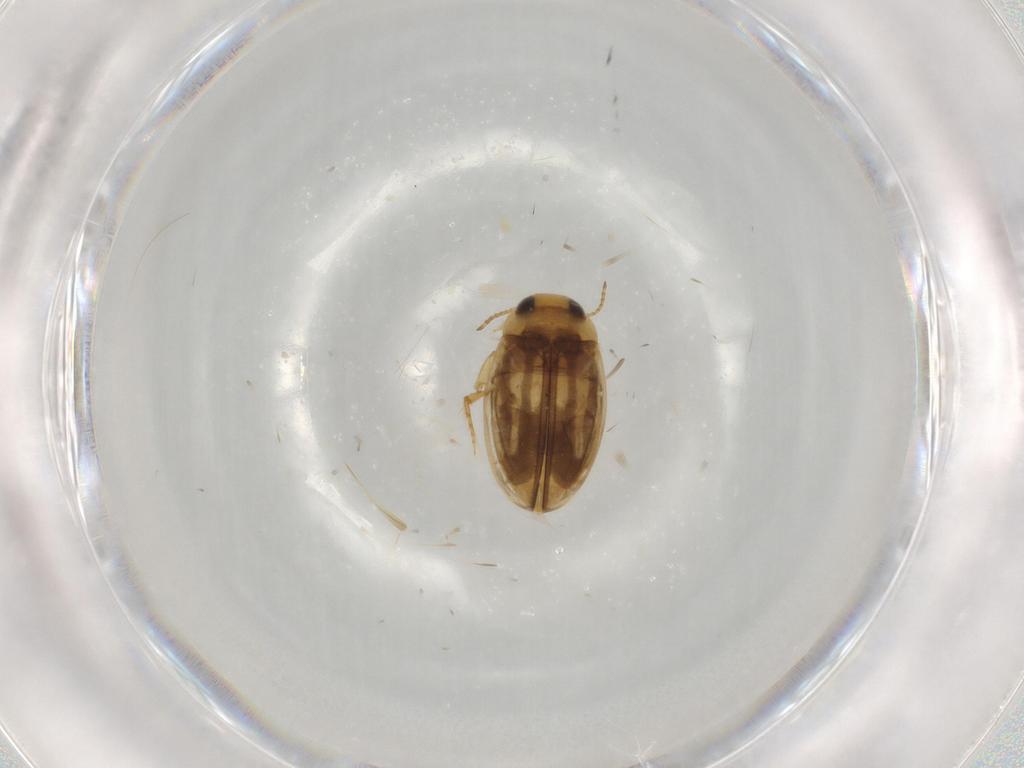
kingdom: Animalia
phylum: Arthropoda
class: Insecta
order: Coleoptera
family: Dytiscidae
